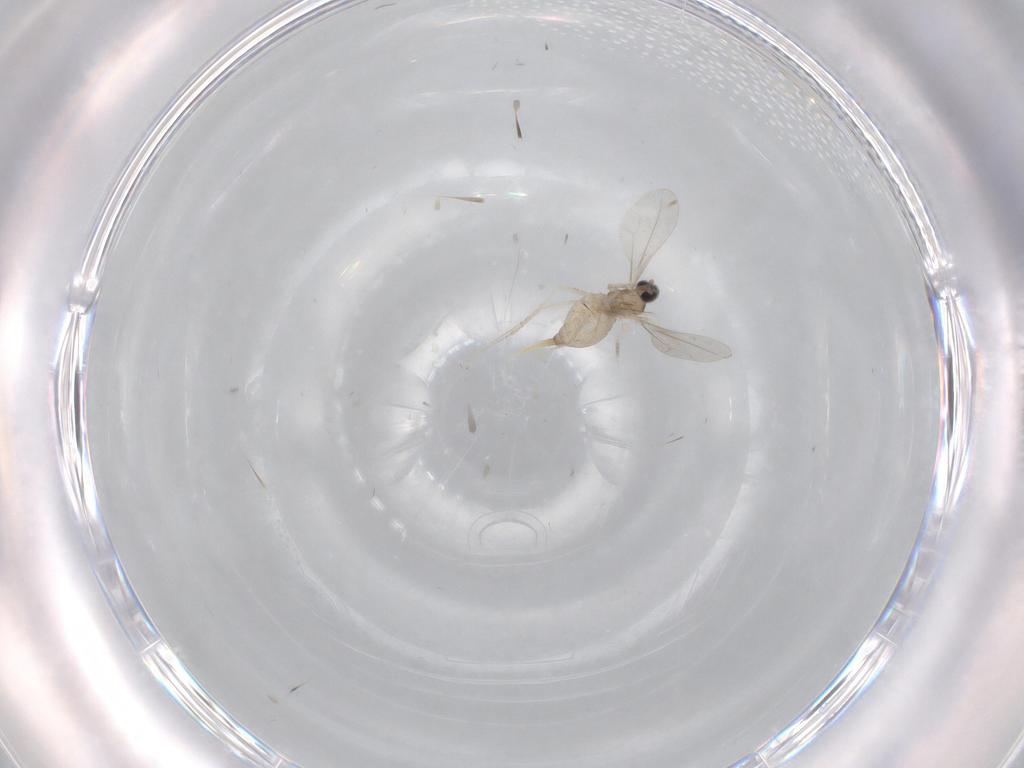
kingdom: Animalia
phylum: Arthropoda
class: Insecta
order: Diptera
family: Cecidomyiidae
